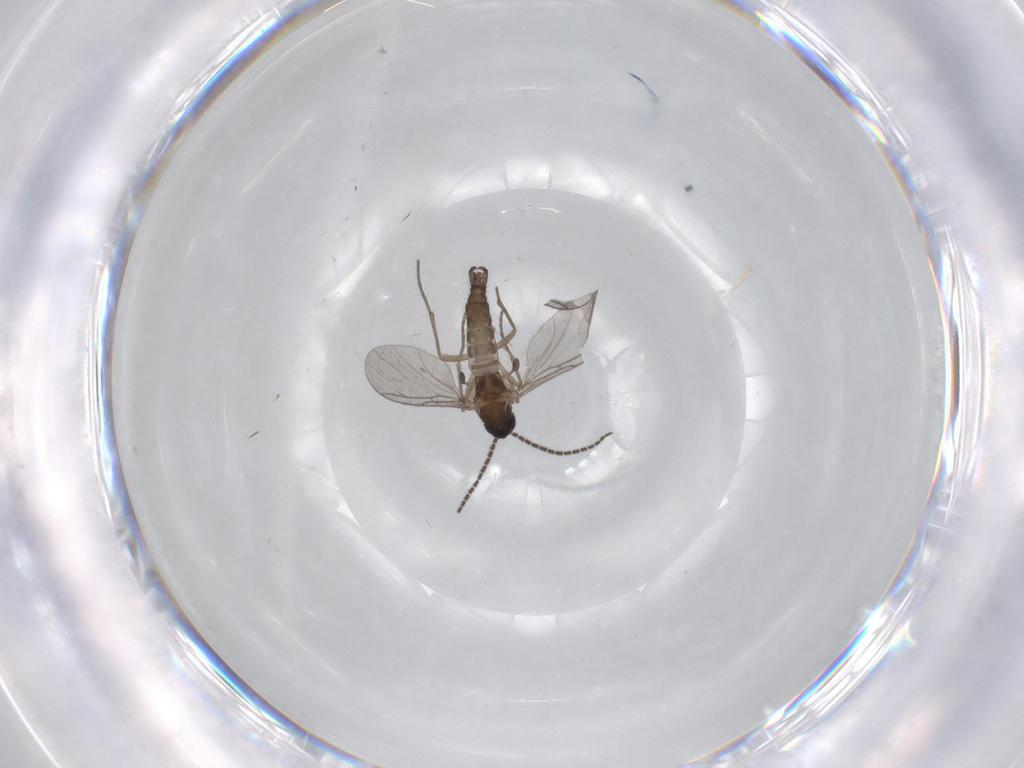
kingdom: Animalia
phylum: Arthropoda
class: Insecta
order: Diptera
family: Sciaridae
